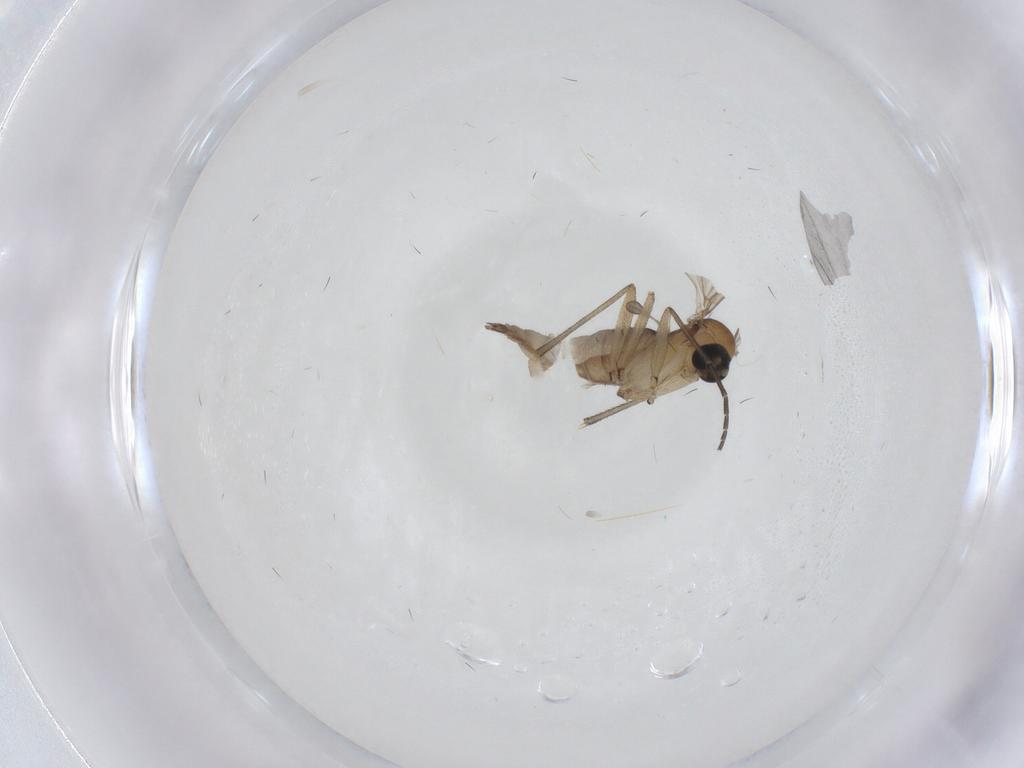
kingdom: Animalia
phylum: Arthropoda
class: Insecta
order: Diptera
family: Sciaridae
